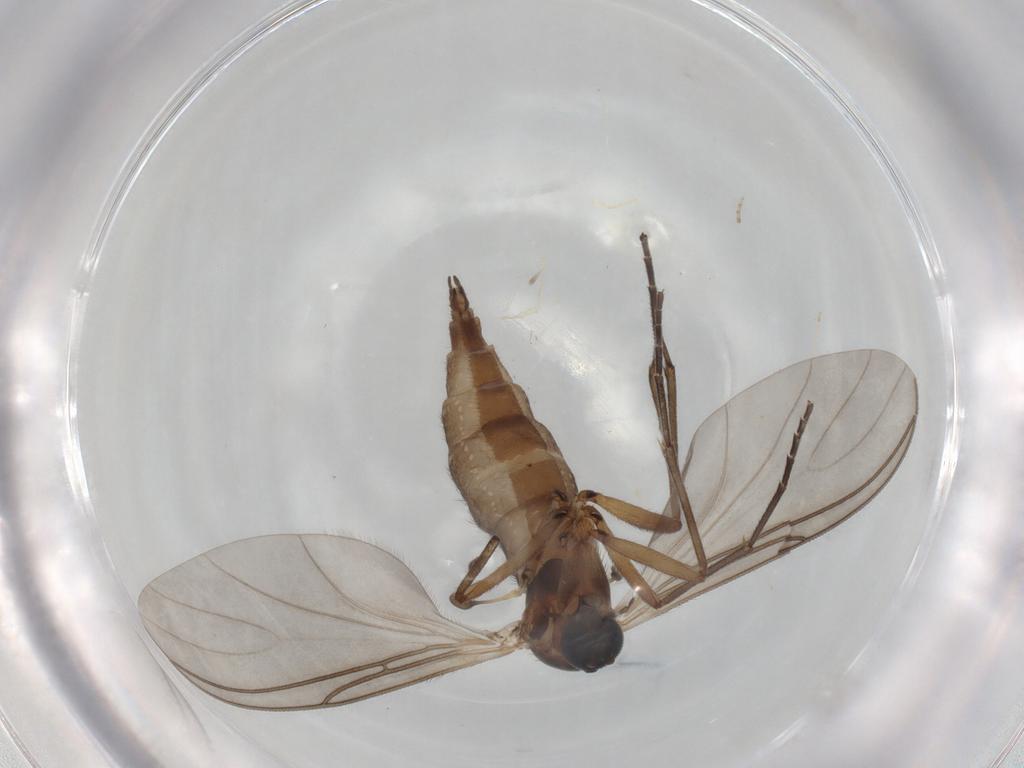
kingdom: Animalia
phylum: Arthropoda
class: Insecta
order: Diptera
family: Sciaridae
